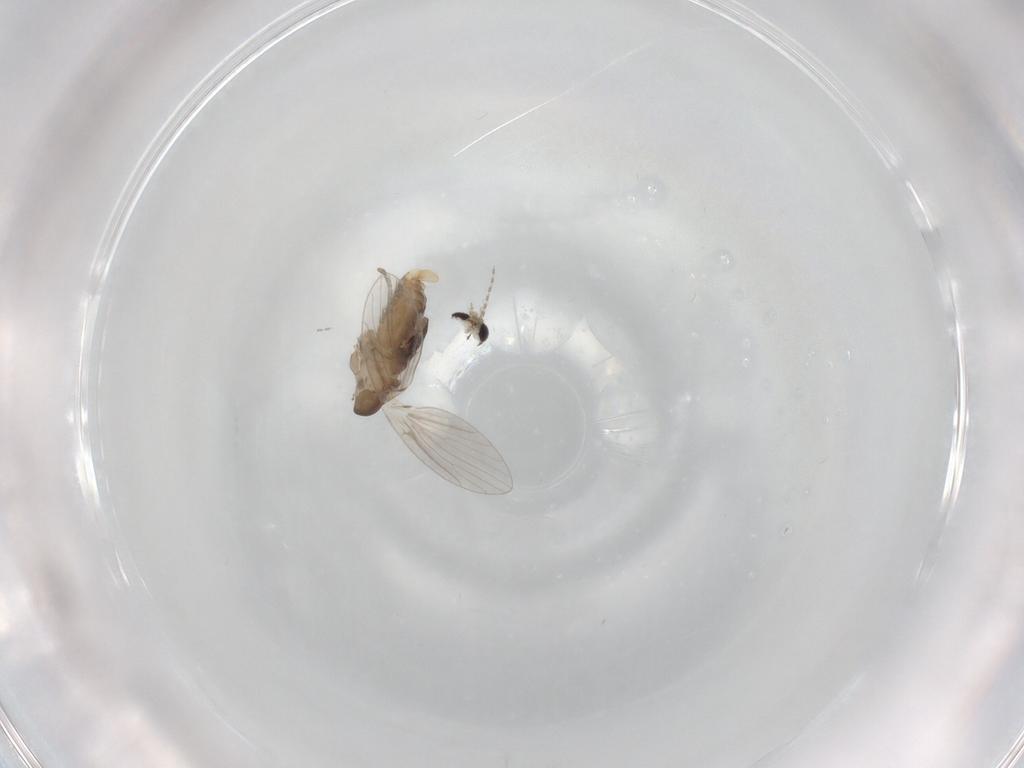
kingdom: Animalia
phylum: Arthropoda
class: Insecta
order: Diptera
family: Psychodidae
